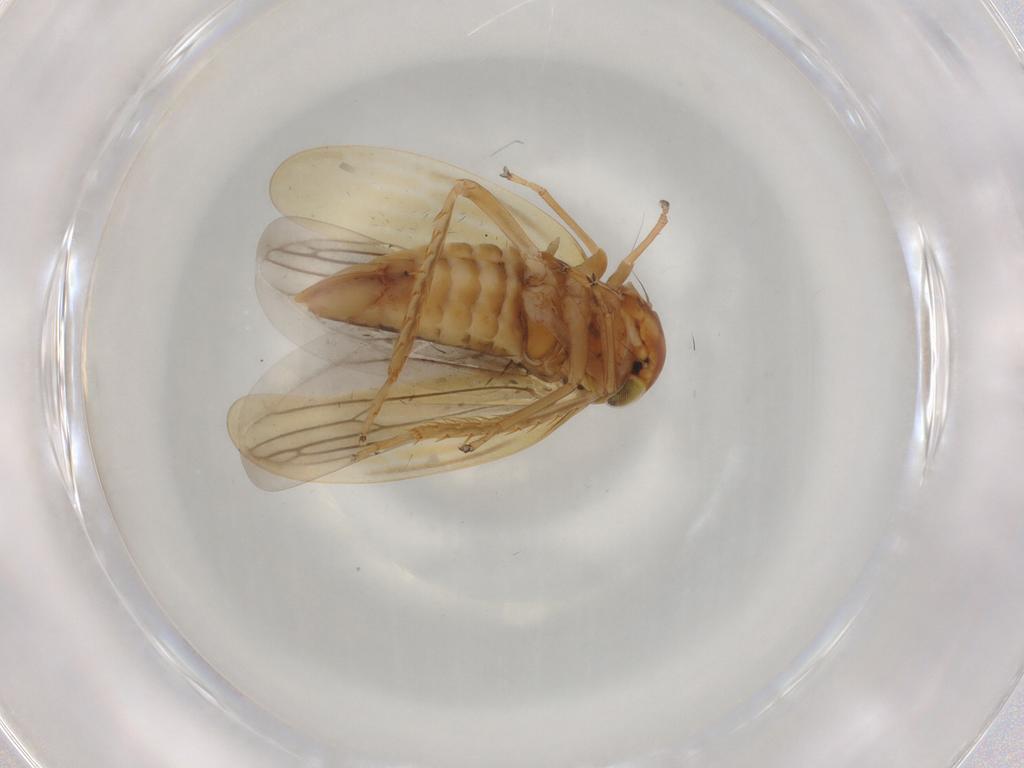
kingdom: Animalia
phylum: Arthropoda
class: Insecta
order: Hemiptera
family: Cicadellidae
